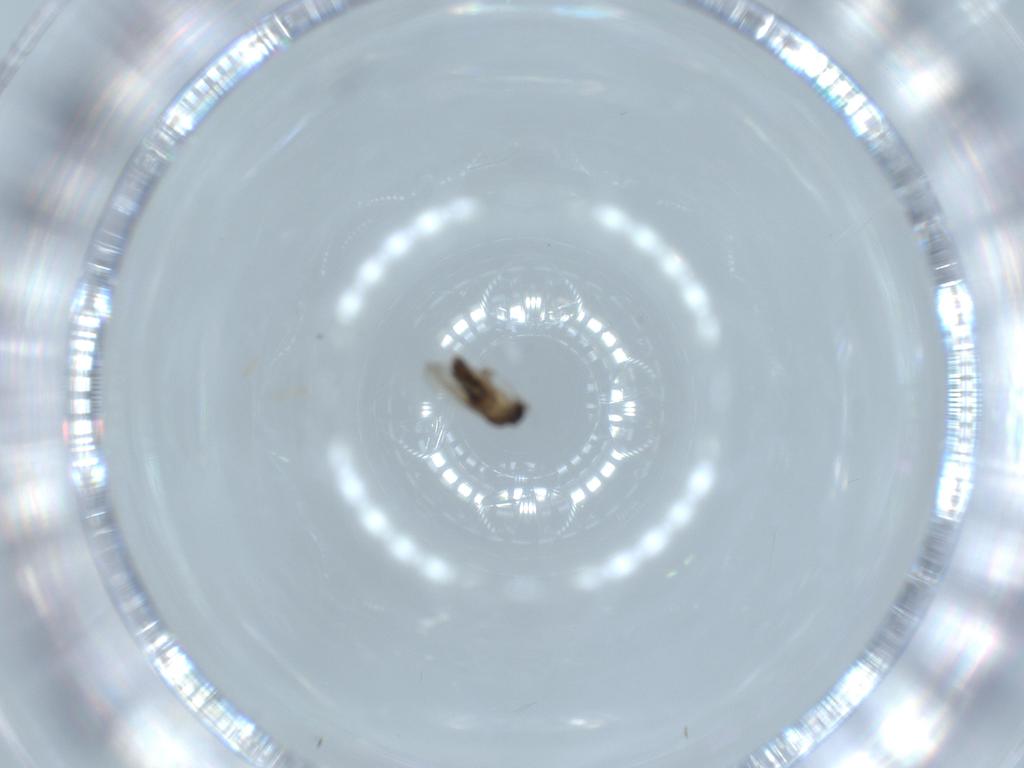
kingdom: Animalia
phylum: Arthropoda
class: Insecta
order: Diptera
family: Phoridae
